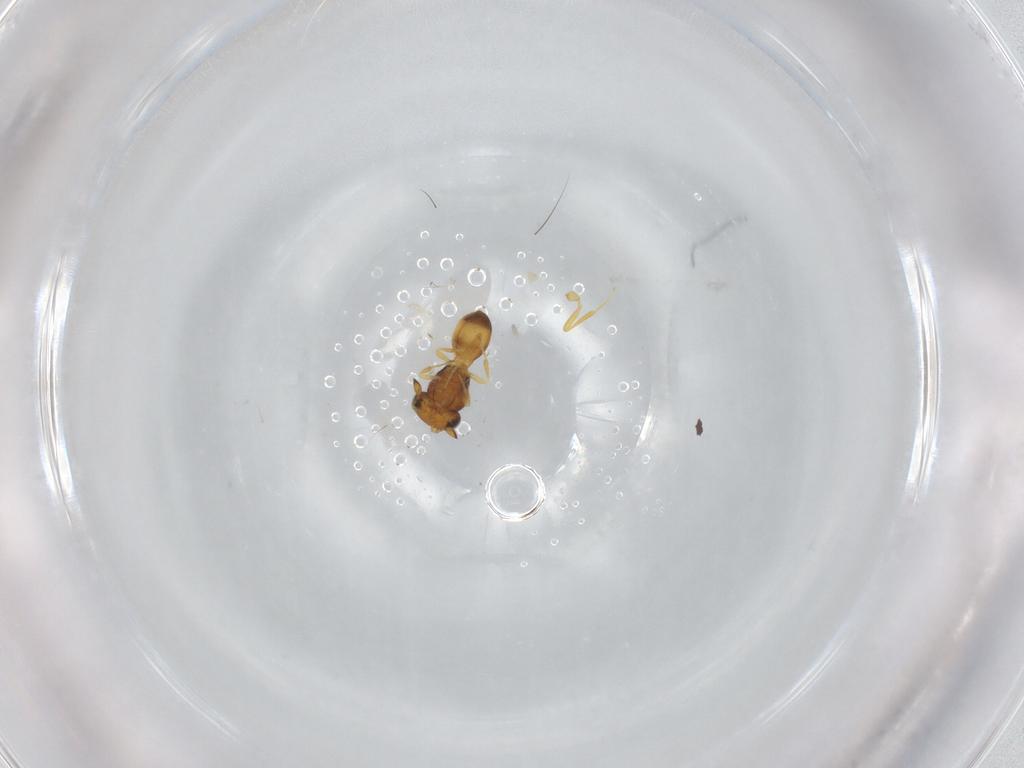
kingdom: Animalia
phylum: Arthropoda
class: Insecta
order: Hymenoptera
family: Scelionidae
